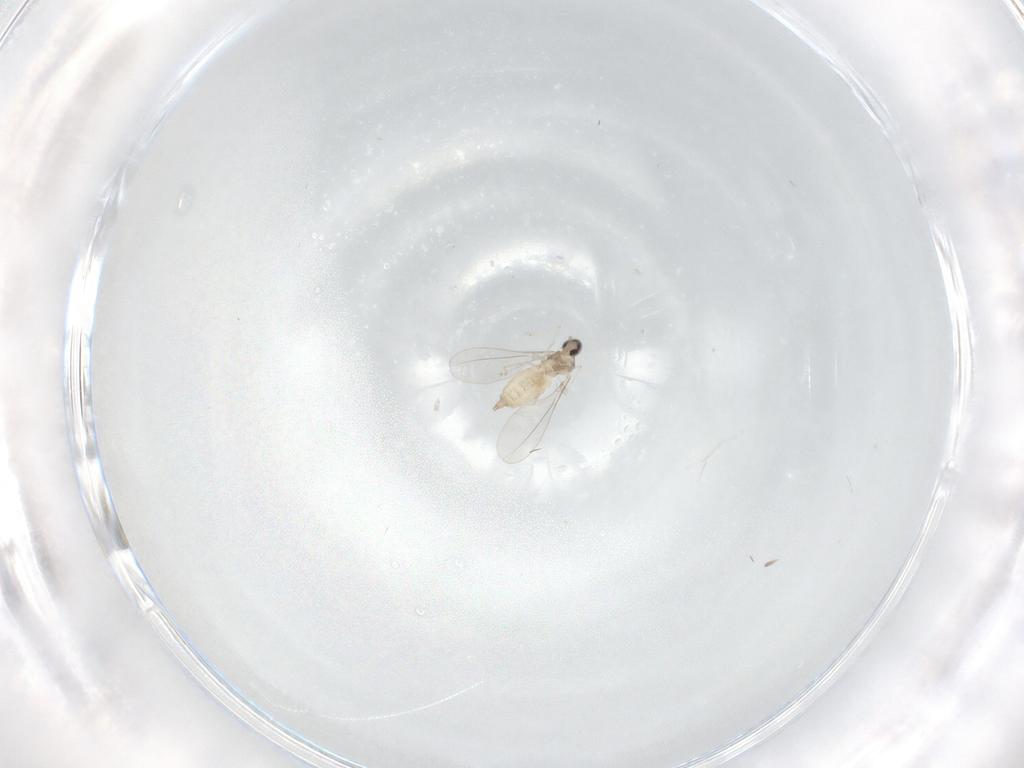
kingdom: Animalia
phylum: Arthropoda
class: Insecta
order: Diptera
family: Cecidomyiidae
